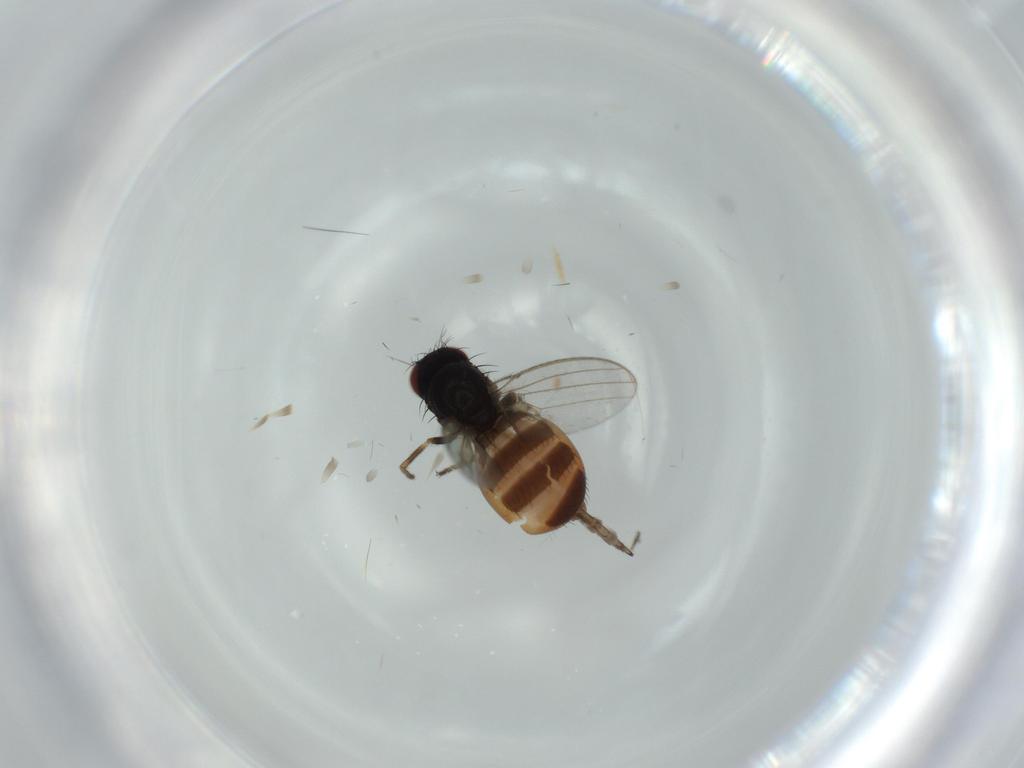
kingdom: Animalia
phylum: Arthropoda
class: Insecta
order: Diptera
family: Milichiidae
